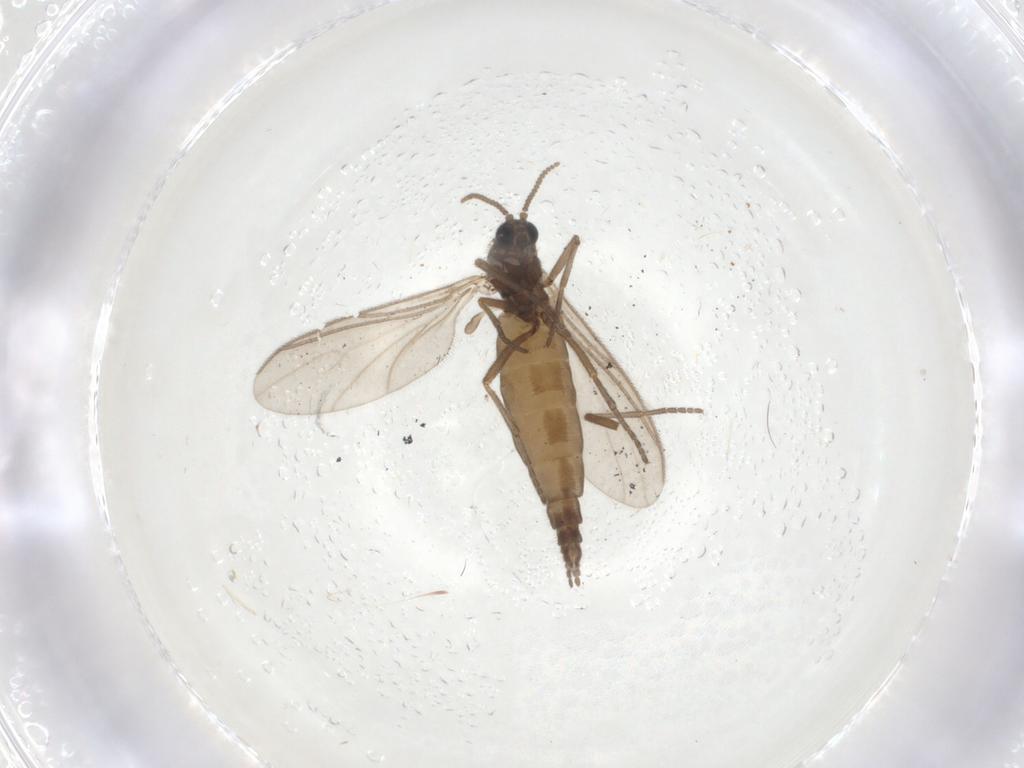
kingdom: Animalia
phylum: Arthropoda
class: Insecta
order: Diptera
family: Sciaridae
